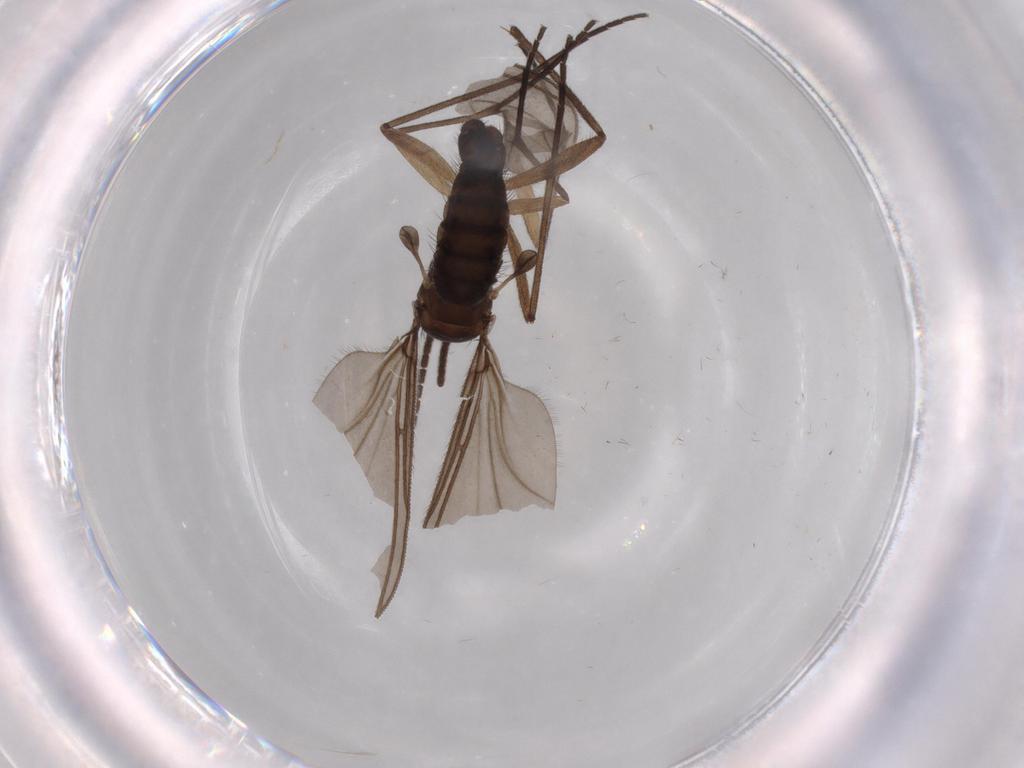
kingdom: Animalia
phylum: Arthropoda
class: Insecta
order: Diptera
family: Sciaridae
